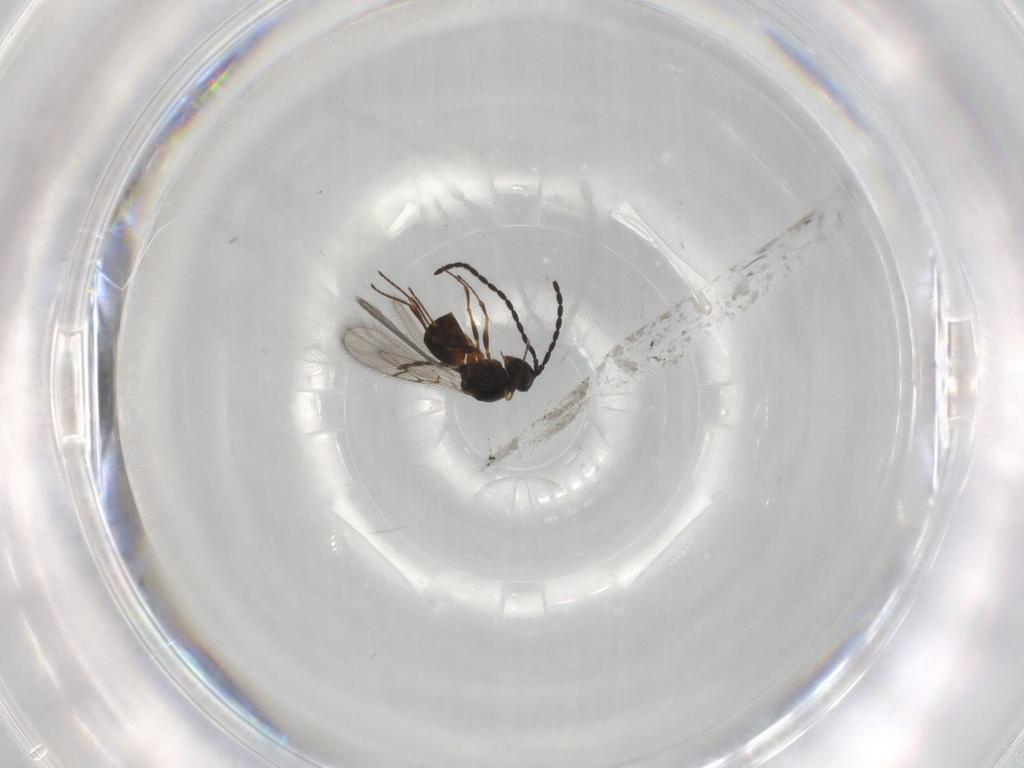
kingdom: Animalia
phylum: Arthropoda
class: Insecta
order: Hymenoptera
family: Figitidae
